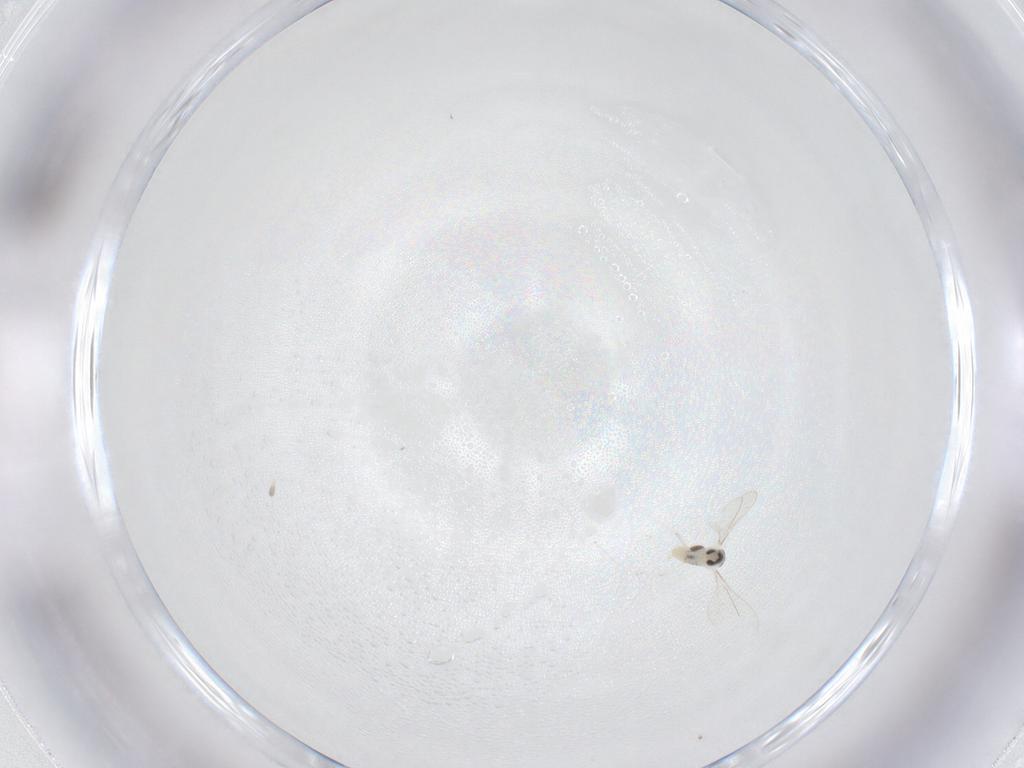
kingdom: Animalia
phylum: Arthropoda
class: Insecta
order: Diptera
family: Cecidomyiidae
